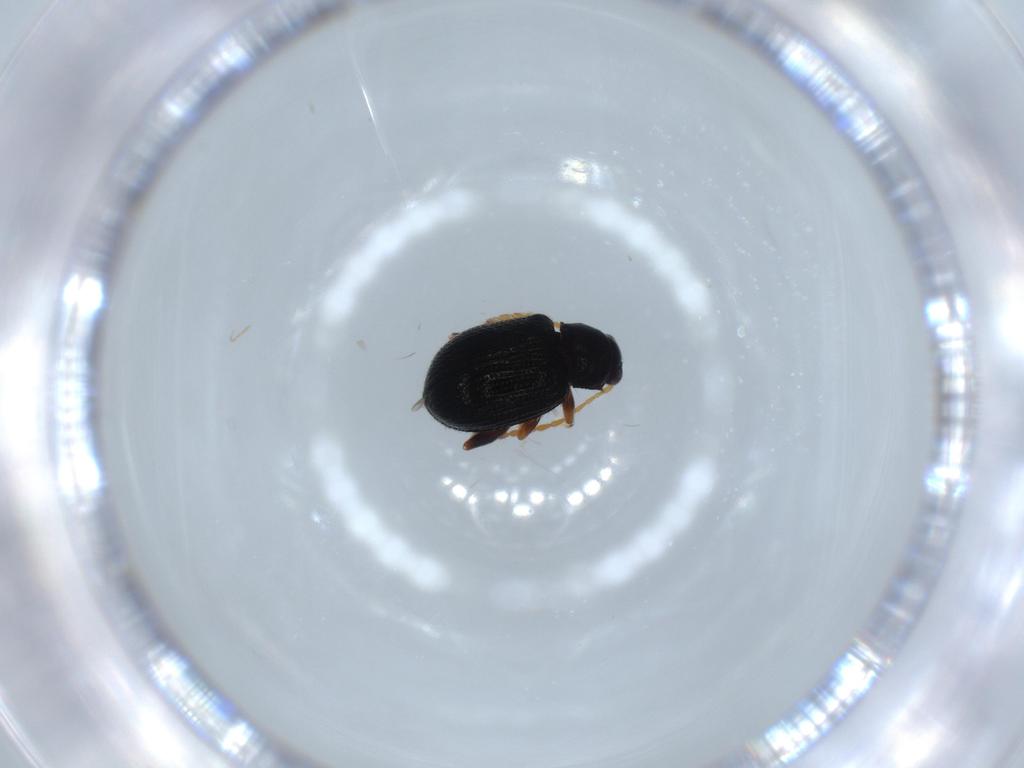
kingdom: Animalia
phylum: Arthropoda
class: Insecta
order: Coleoptera
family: Chrysomelidae
